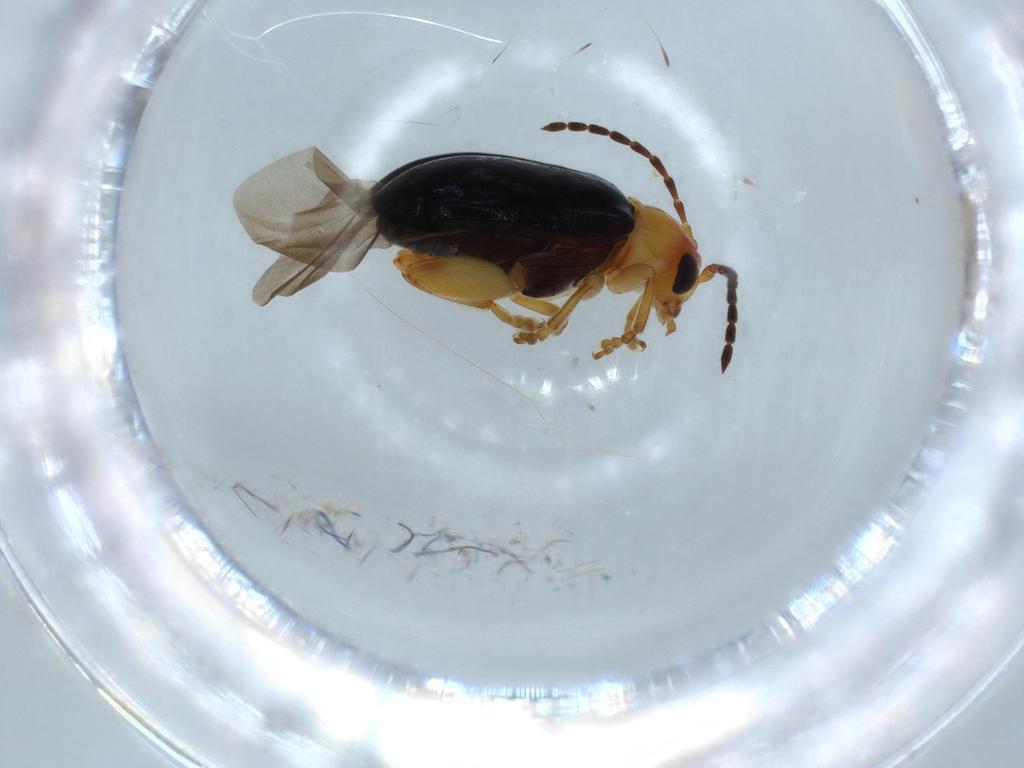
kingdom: Animalia
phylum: Arthropoda
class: Insecta
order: Coleoptera
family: Chrysomelidae
